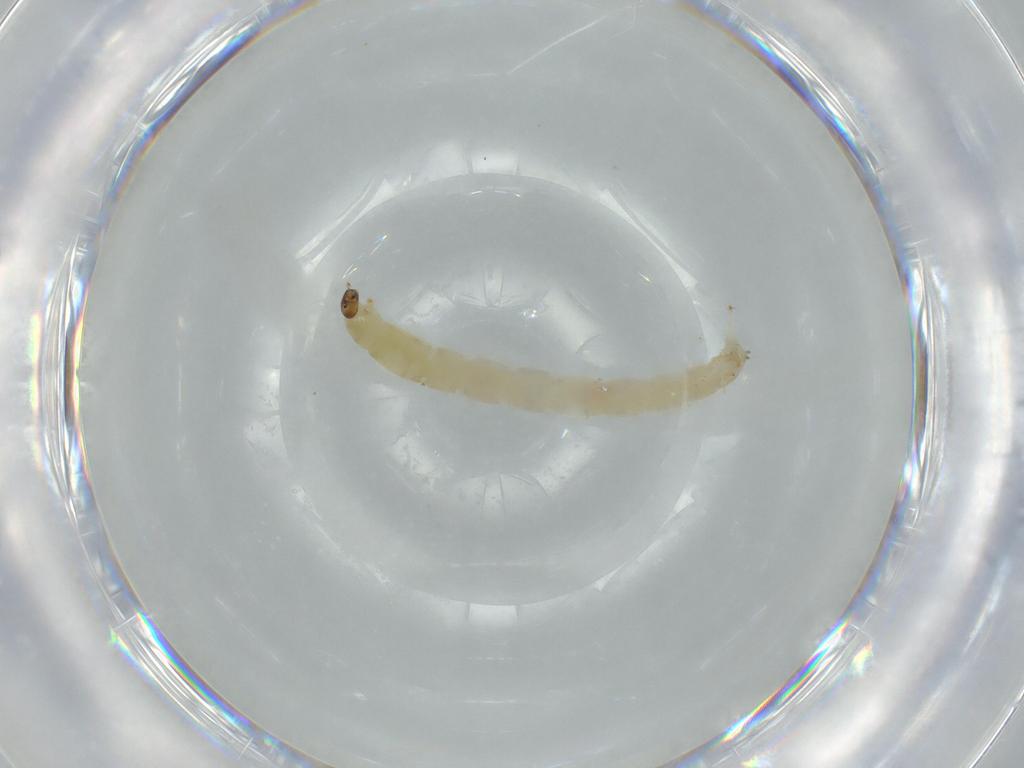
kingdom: Animalia
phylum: Arthropoda
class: Insecta
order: Diptera
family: Chironomidae
